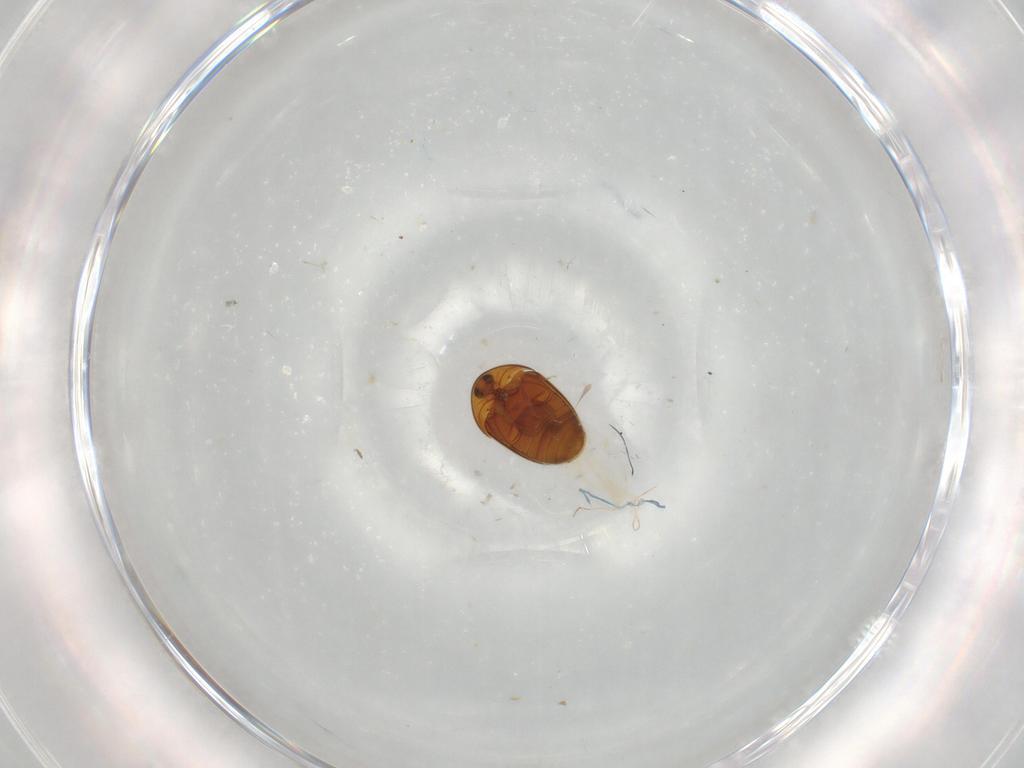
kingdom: Animalia
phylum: Arthropoda
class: Insecta
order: Coleoptera
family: Corylophidae
